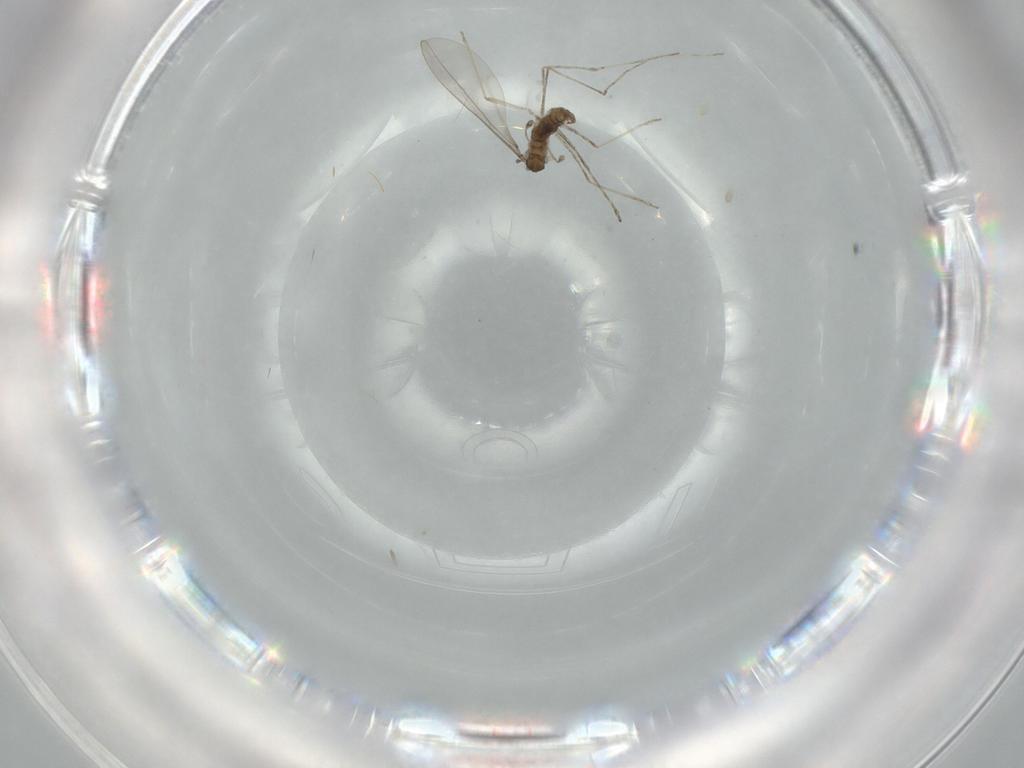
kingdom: Animalia
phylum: Arthropoda
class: Insecta
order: Diptera
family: Cecidomyiidae
